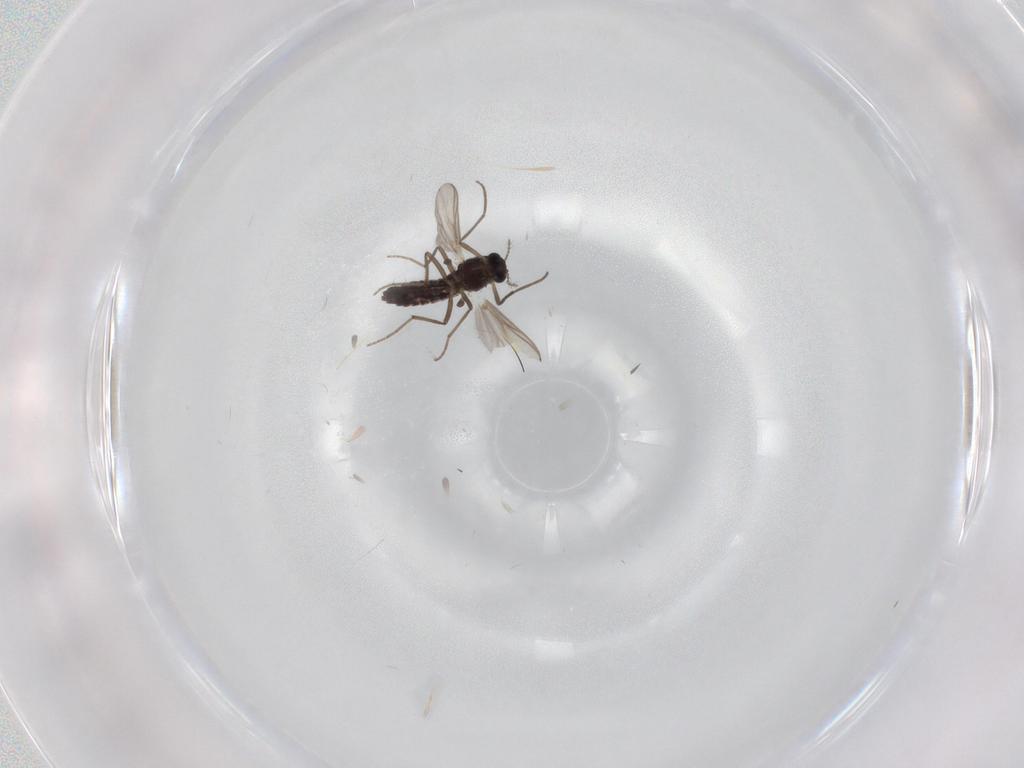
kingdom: Animalia
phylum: Arthropoda
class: Insecta
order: Diptera
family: Chironomidae
